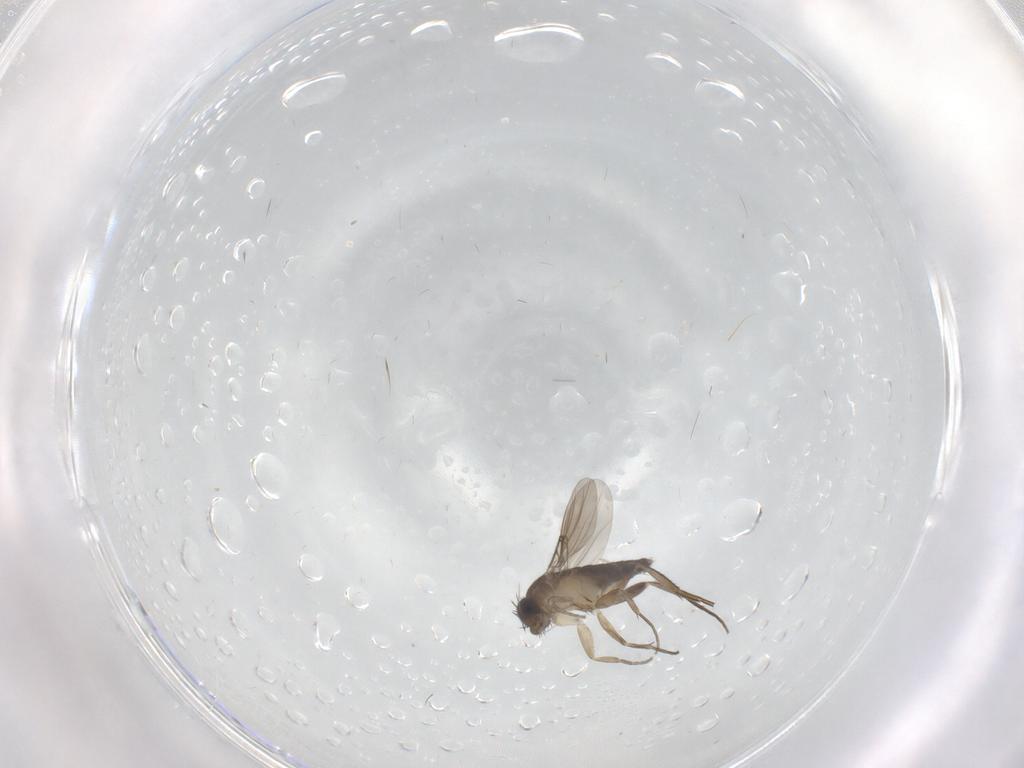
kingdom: Animalia
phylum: Arthropoda
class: Insecta
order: Diptera
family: Phoridae
